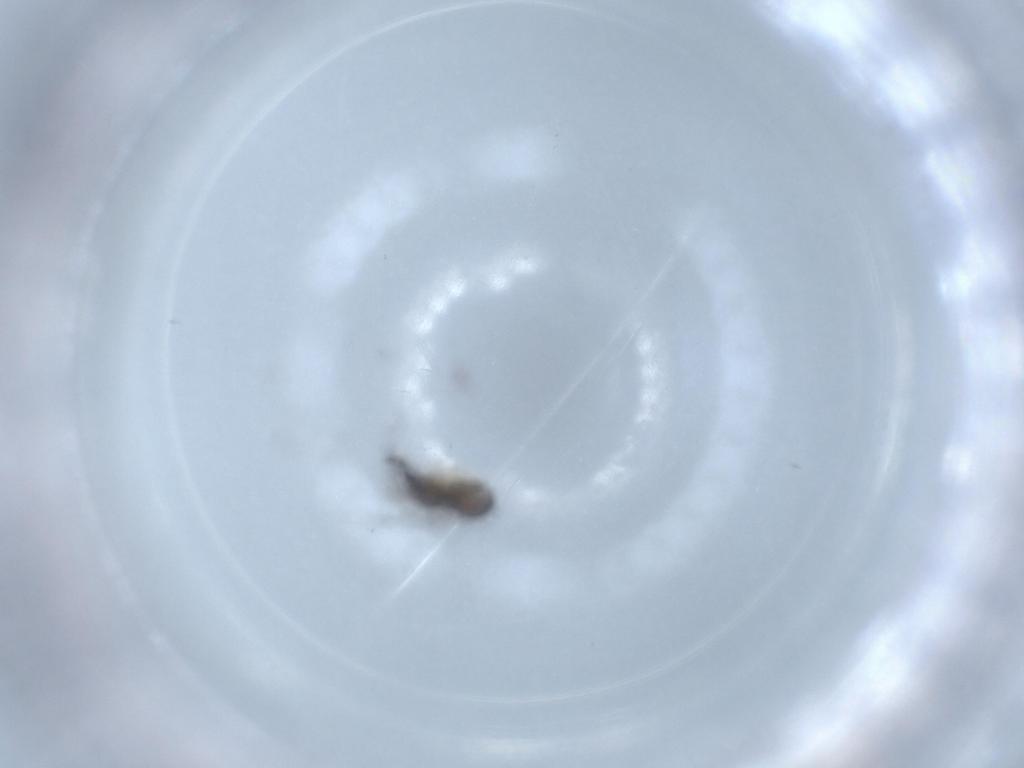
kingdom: Animalia
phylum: Arthropoda
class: Insecta
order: Diptera
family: Sciaridae
